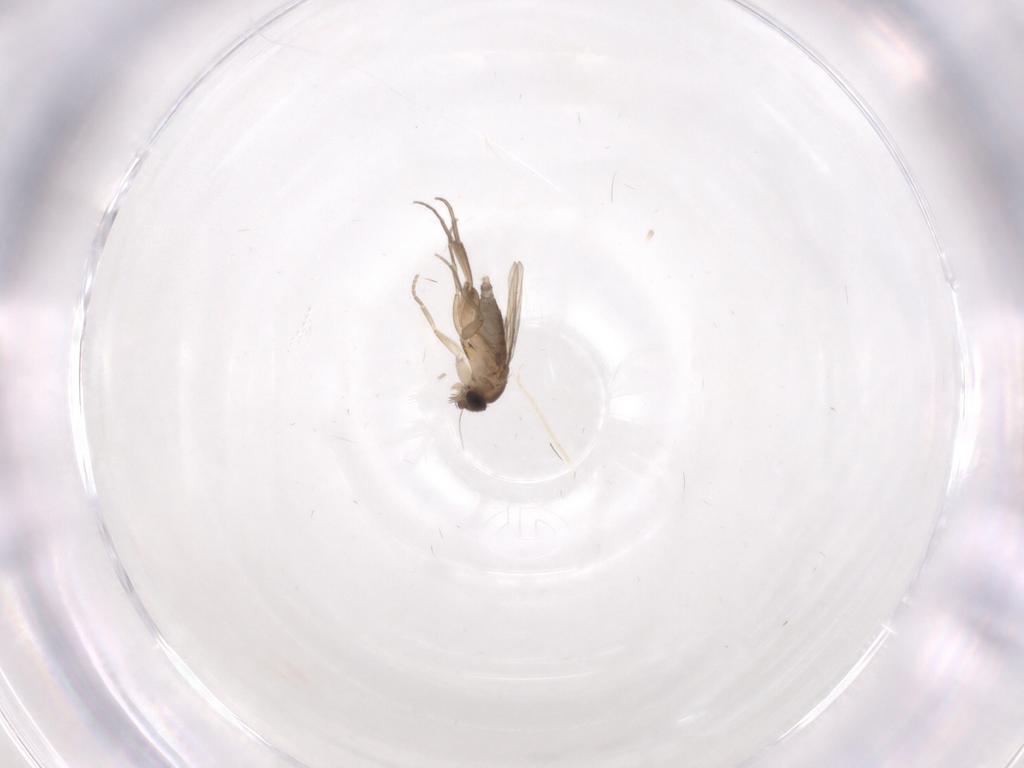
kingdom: Animalia
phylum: Arthropoda
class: Insecta
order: Diptera
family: Phoridae
